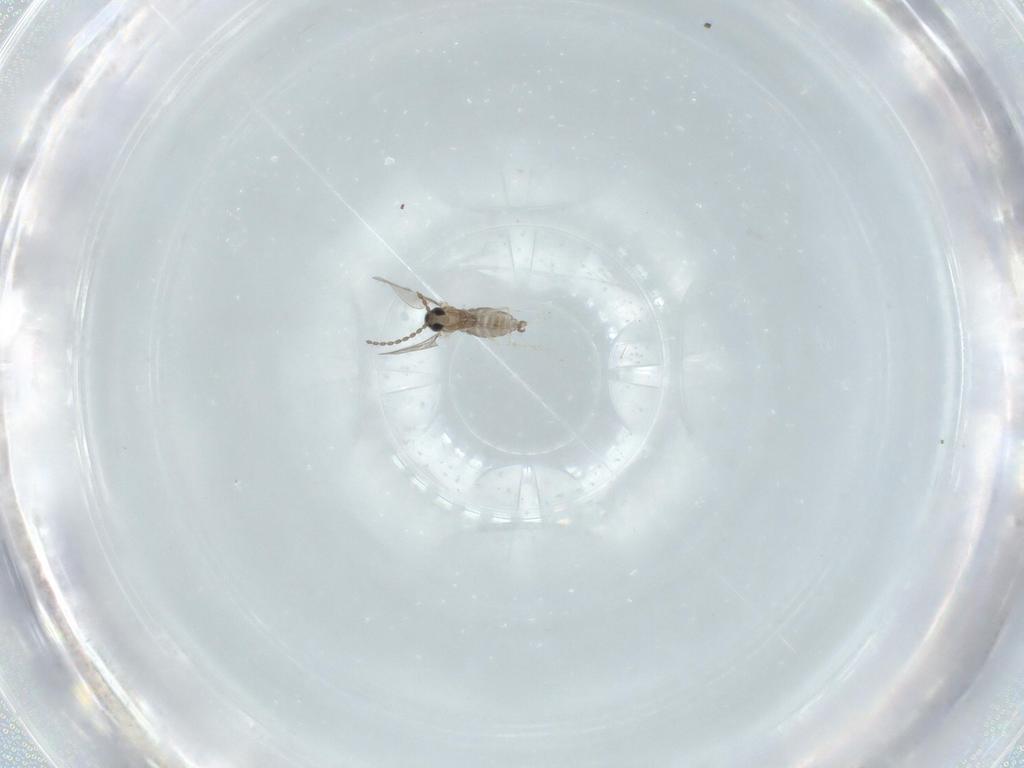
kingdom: Animalia
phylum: Arthropoda
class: Insecta
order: Diptera
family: Cecidomyiidae
